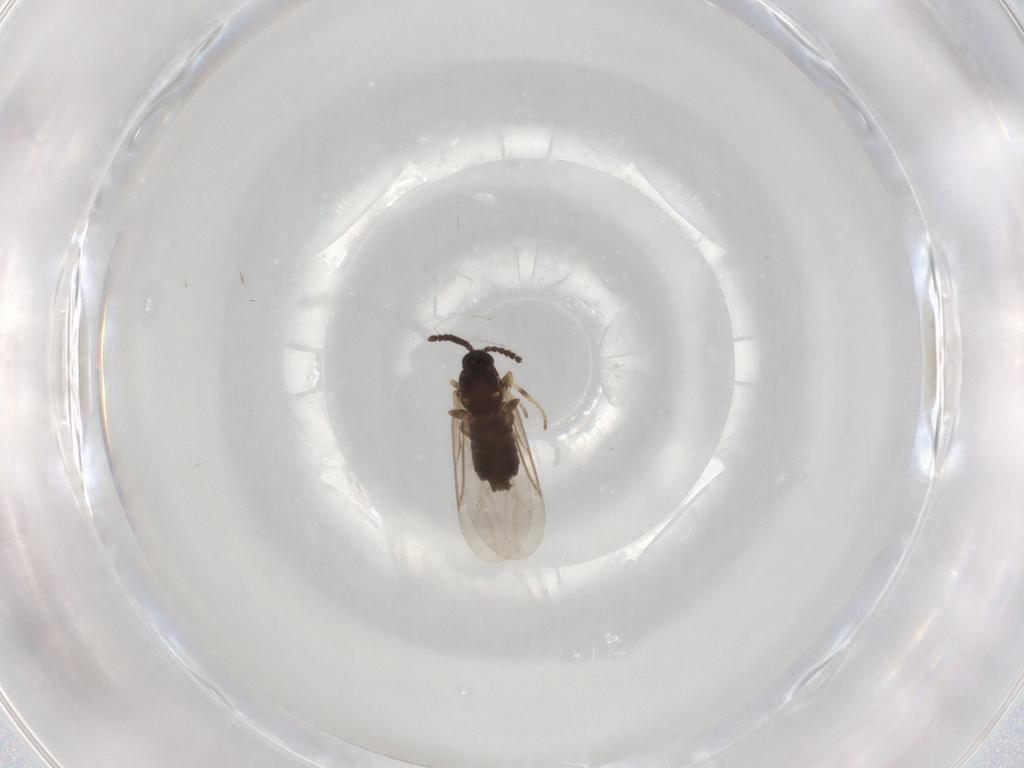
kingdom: Animalia
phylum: Arthropoda
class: Insecta
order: Diptera
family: Scatopsidae
